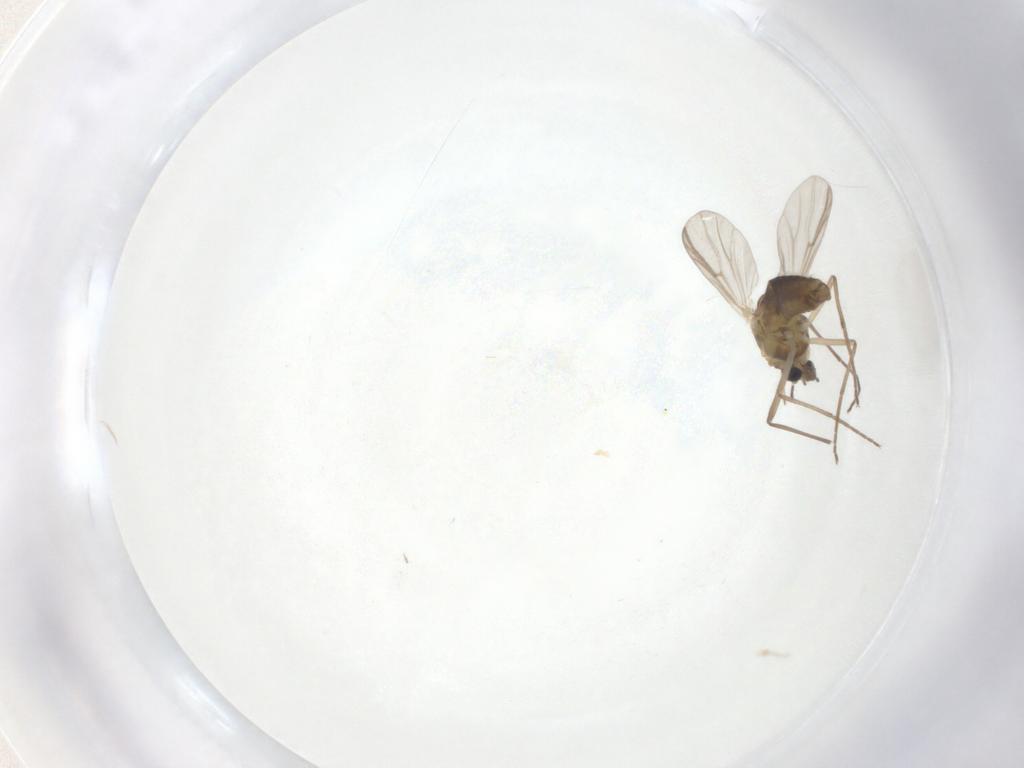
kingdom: Animalia
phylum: Arthropoda
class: Insecta
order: Diptera
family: Chironomidae
